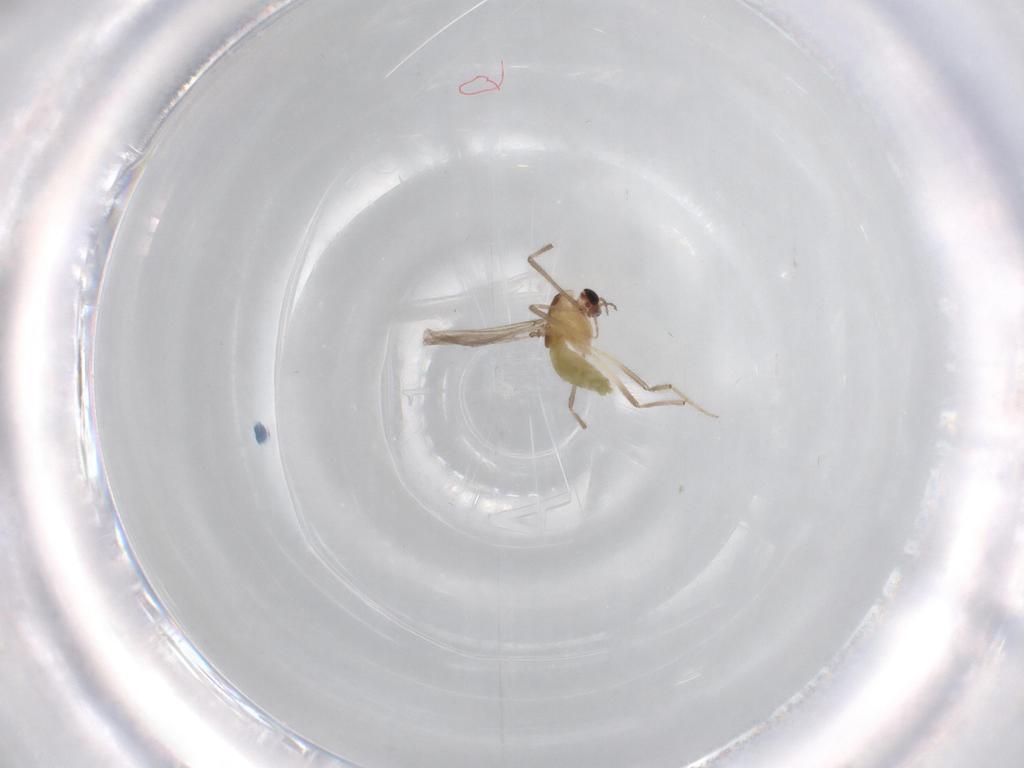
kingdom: Animalia
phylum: Arthropoda
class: Insecta
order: Diptera
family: Chironomidae
